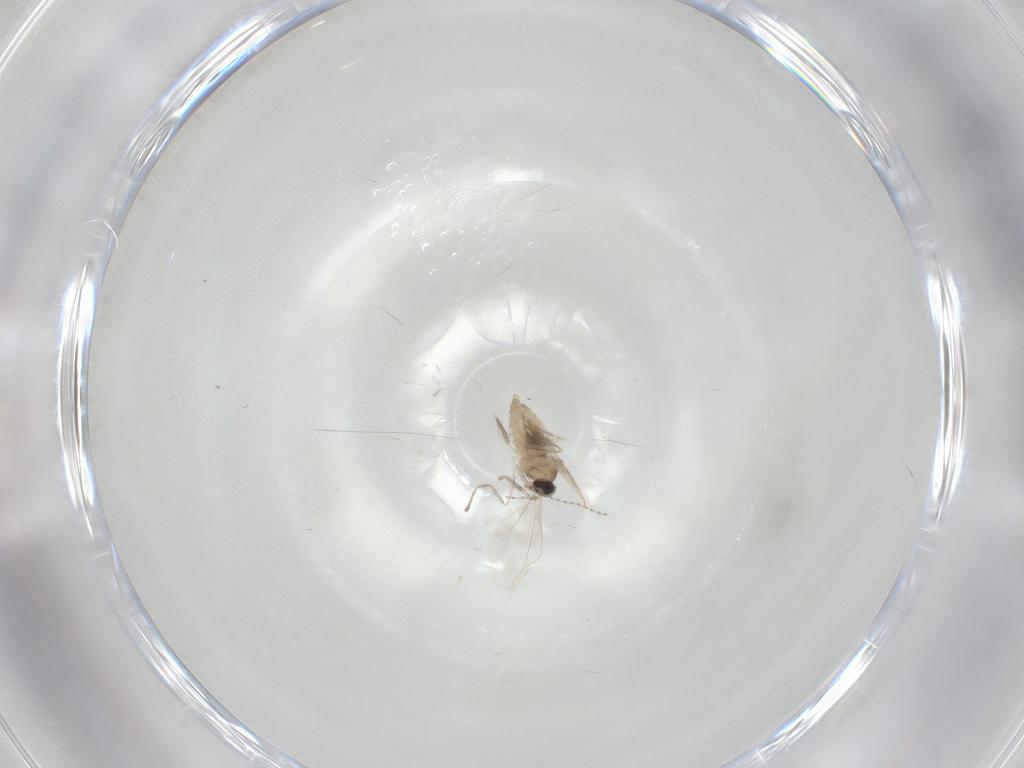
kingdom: Animalia
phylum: Arthropoda
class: Insecta
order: Diptera
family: Cecidomyiidae
